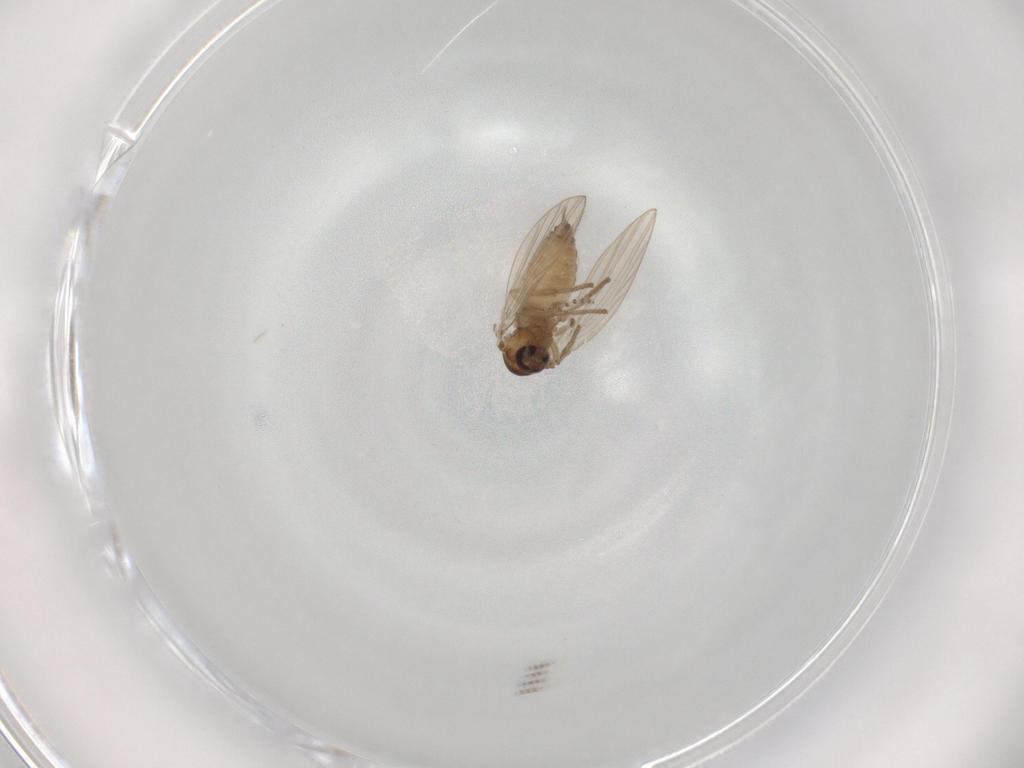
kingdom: Animalia
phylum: Arthropoda
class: Insecta
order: Diptera
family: Psychodidae
